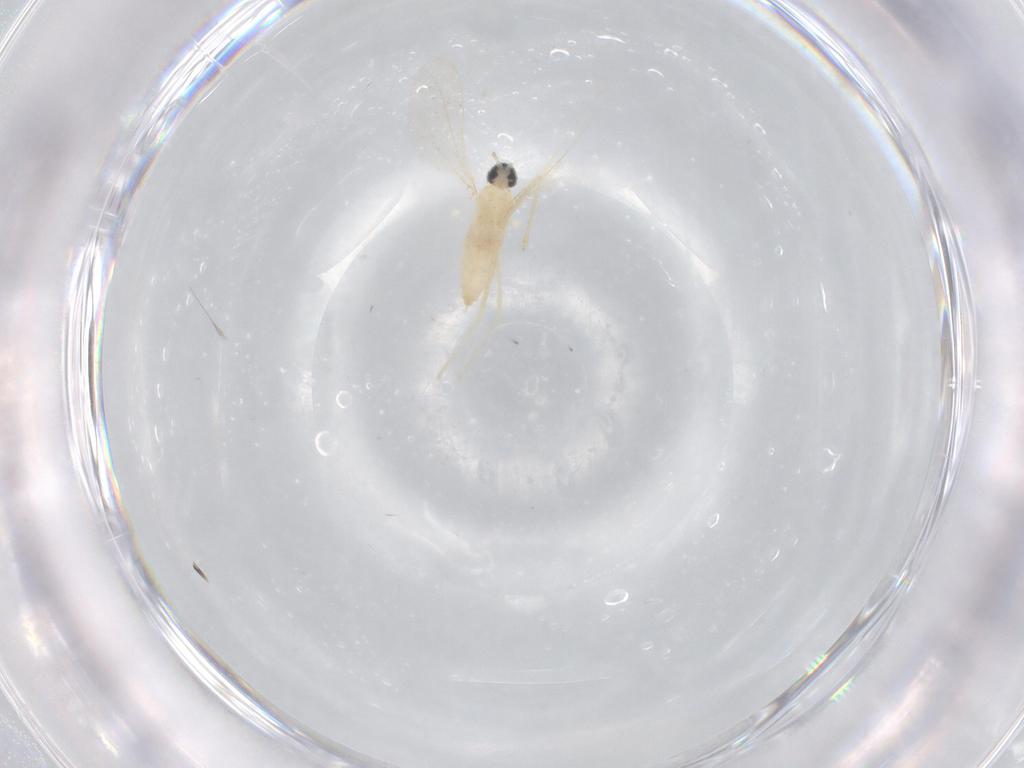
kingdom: Animalia
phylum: Arthropoda
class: Insecta
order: Diptera
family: Cecidomyiidae
